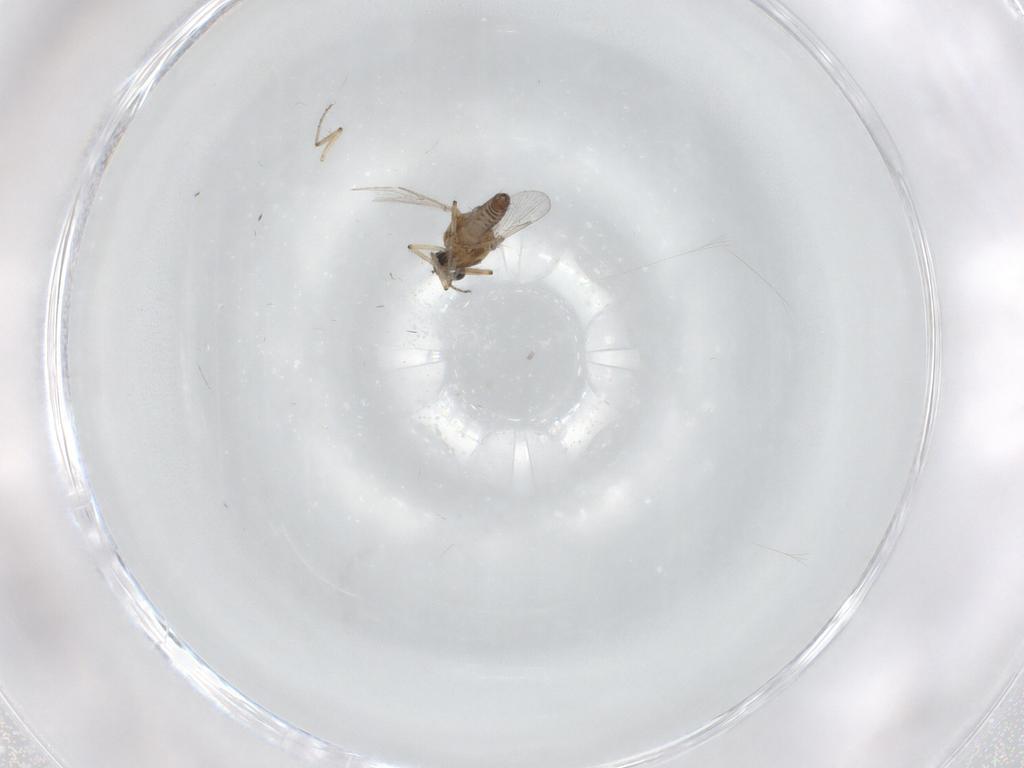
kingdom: Animalia
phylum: Arthropoda
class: Insecta
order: Diptera
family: Ceratopogonidae
